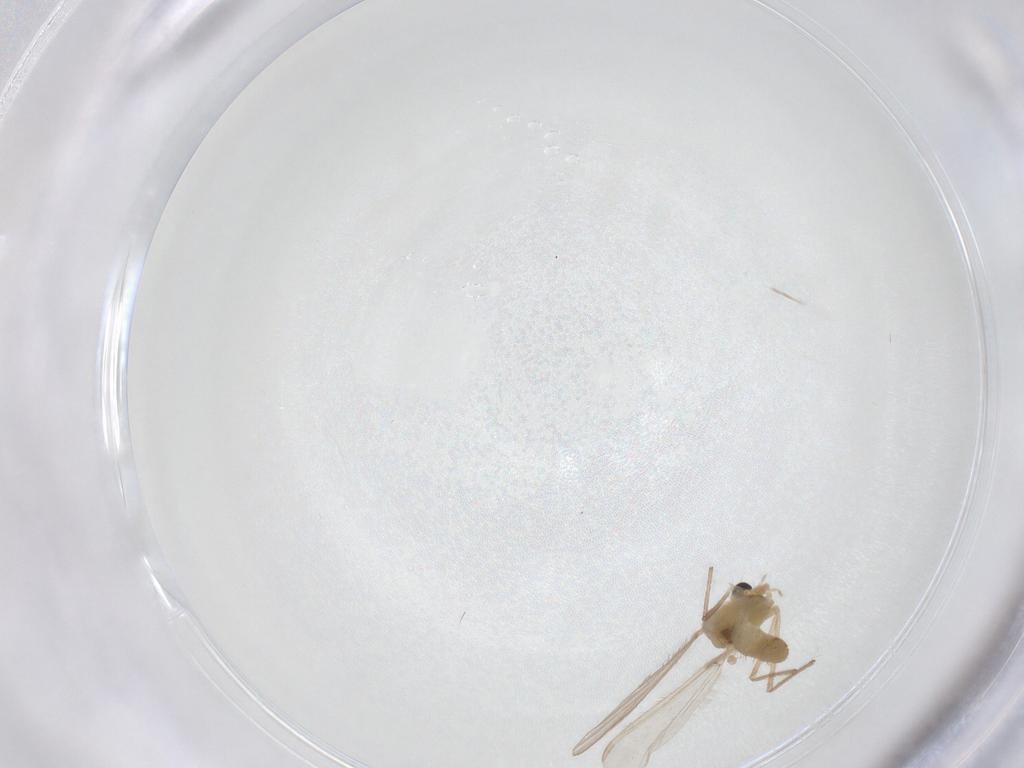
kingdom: Animalia
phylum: Arthropoda
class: Insecta
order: Diptera
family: Chironomidae
